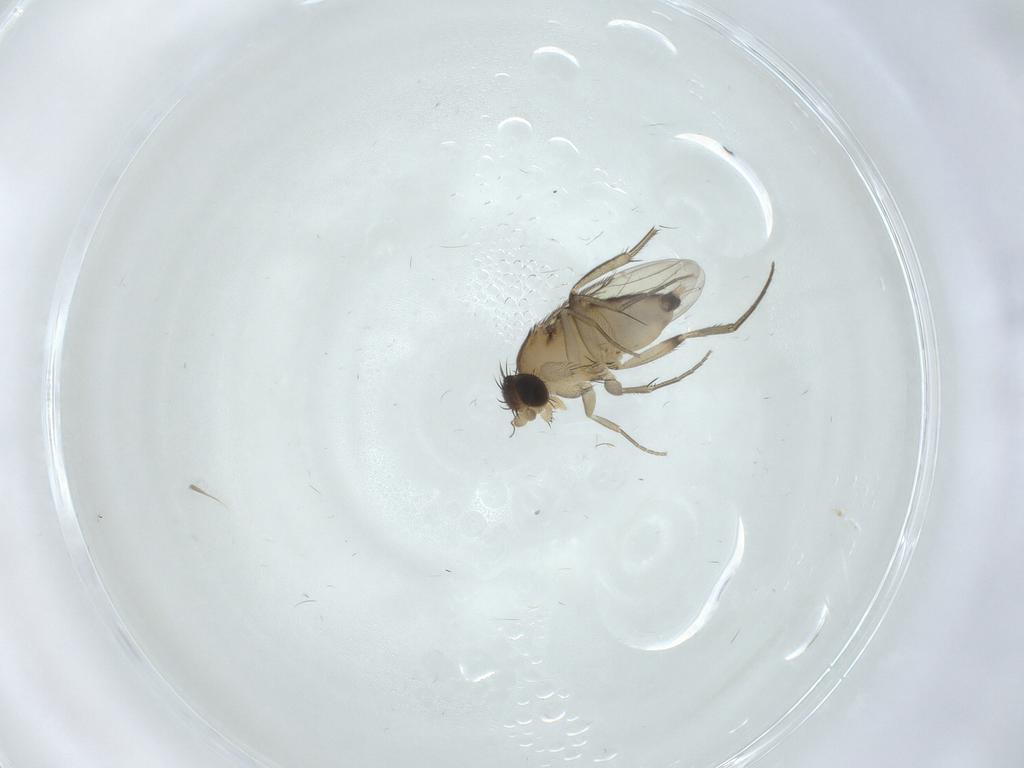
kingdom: Animalia
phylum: Arthropoda
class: Insecta
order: Diptera
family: Phoridae
